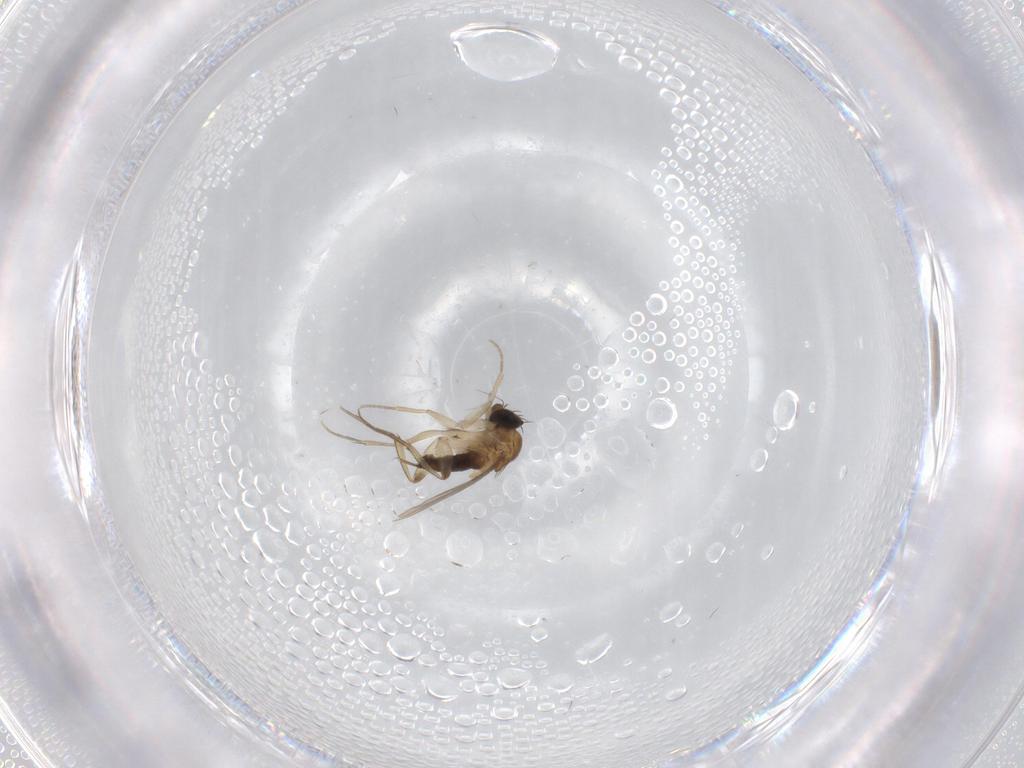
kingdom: Animalia
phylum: Arthropoda
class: Insecta
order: Diptera
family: Phoridae
